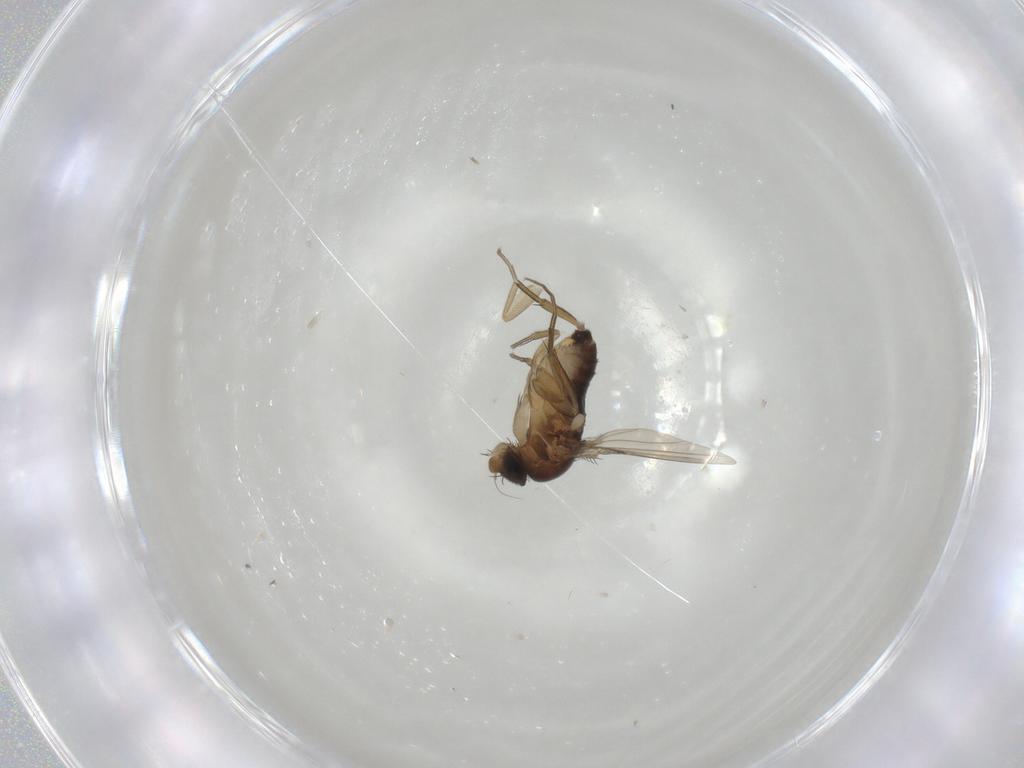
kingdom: Animalia
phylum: Arthropoda
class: Insecta
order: Diptera
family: Phoridae
